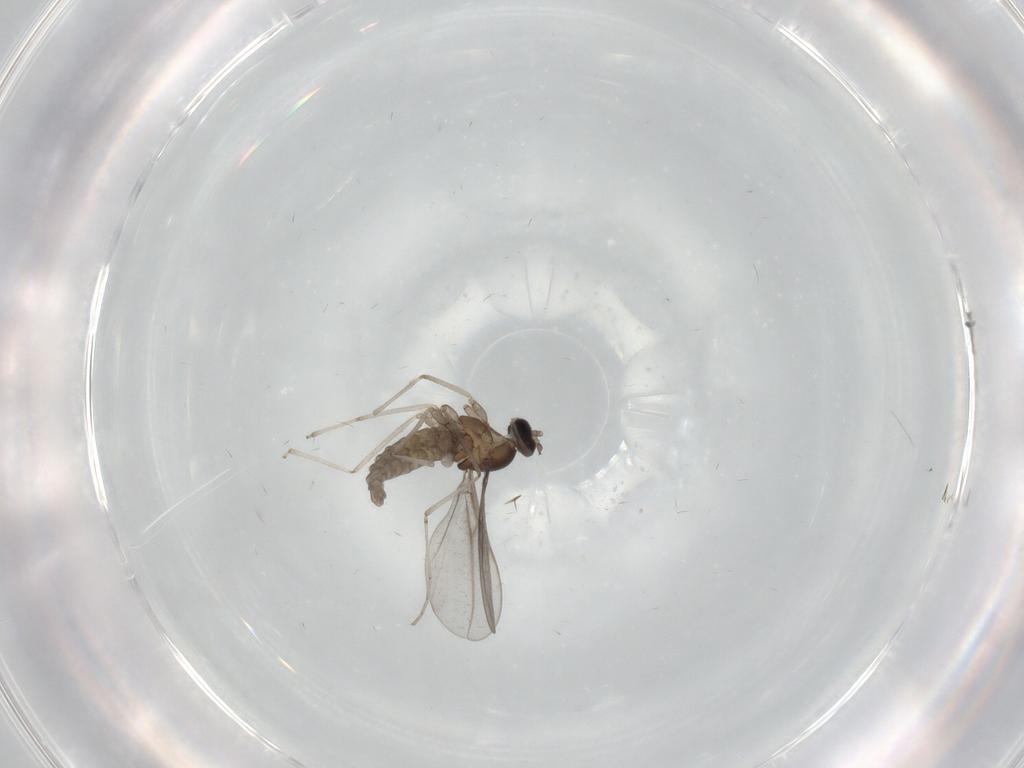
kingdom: Animalia
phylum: Arthropoda
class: Insecta
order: Diptera
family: Cecidomyiidae
